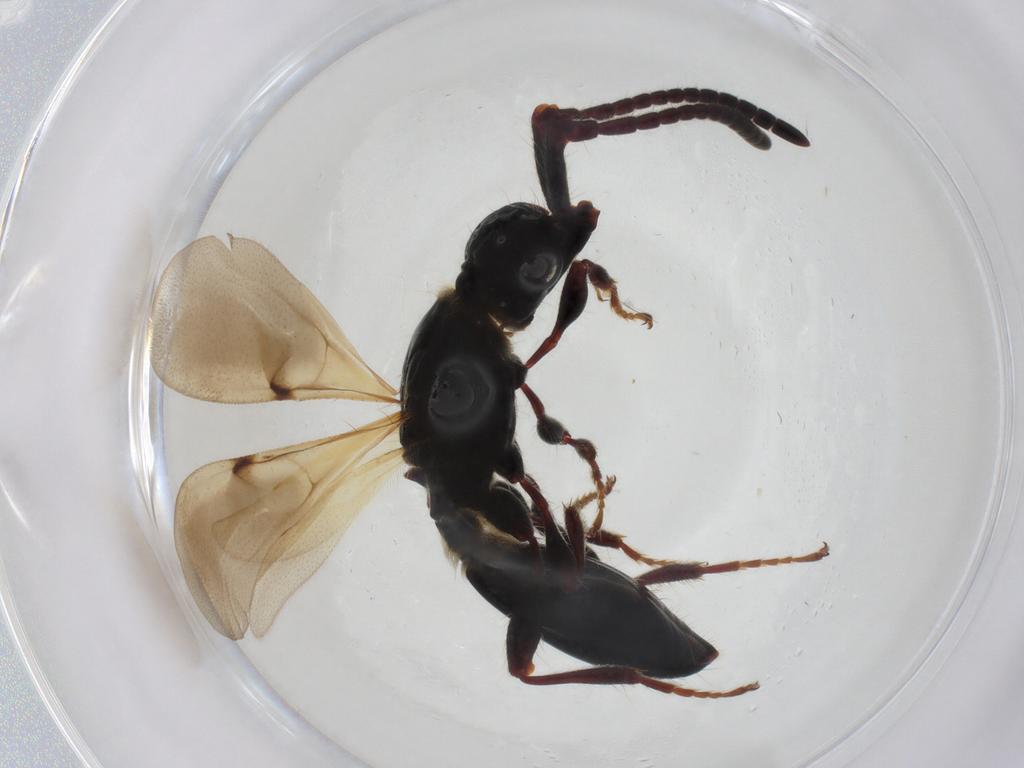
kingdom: Animalia
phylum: Arthropoda
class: Insecta
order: Hymenoptera
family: Diapriidae
